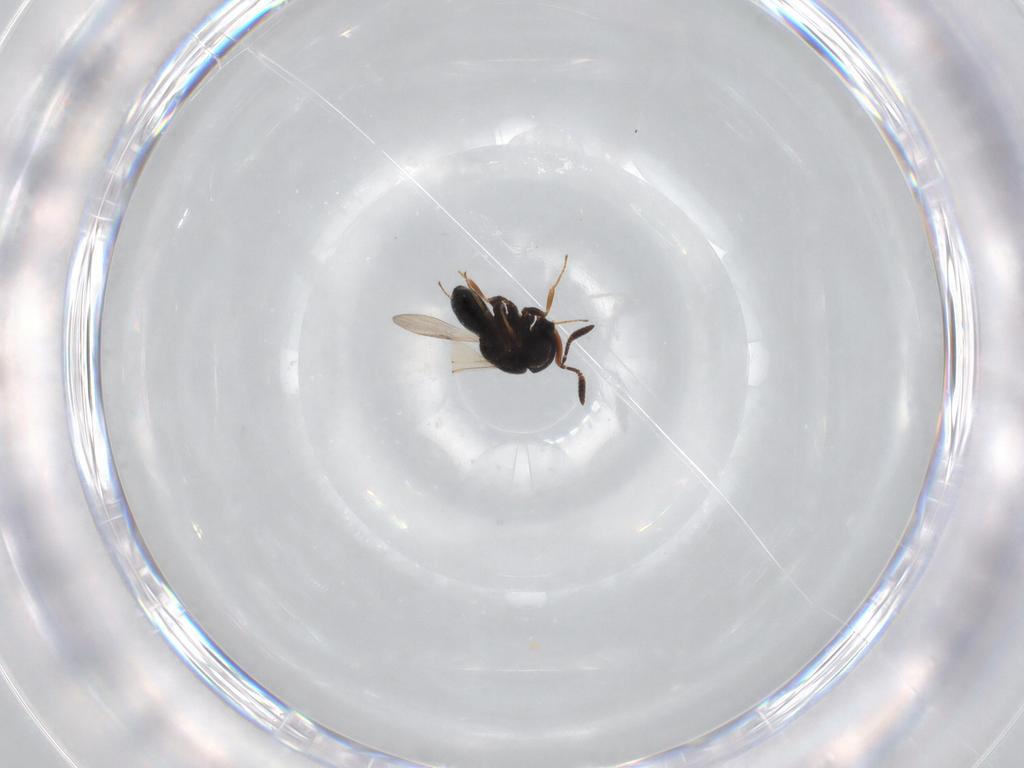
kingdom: Animalia
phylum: Arthropoda
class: Insecta
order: Hymenoptera
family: Scelionidae
